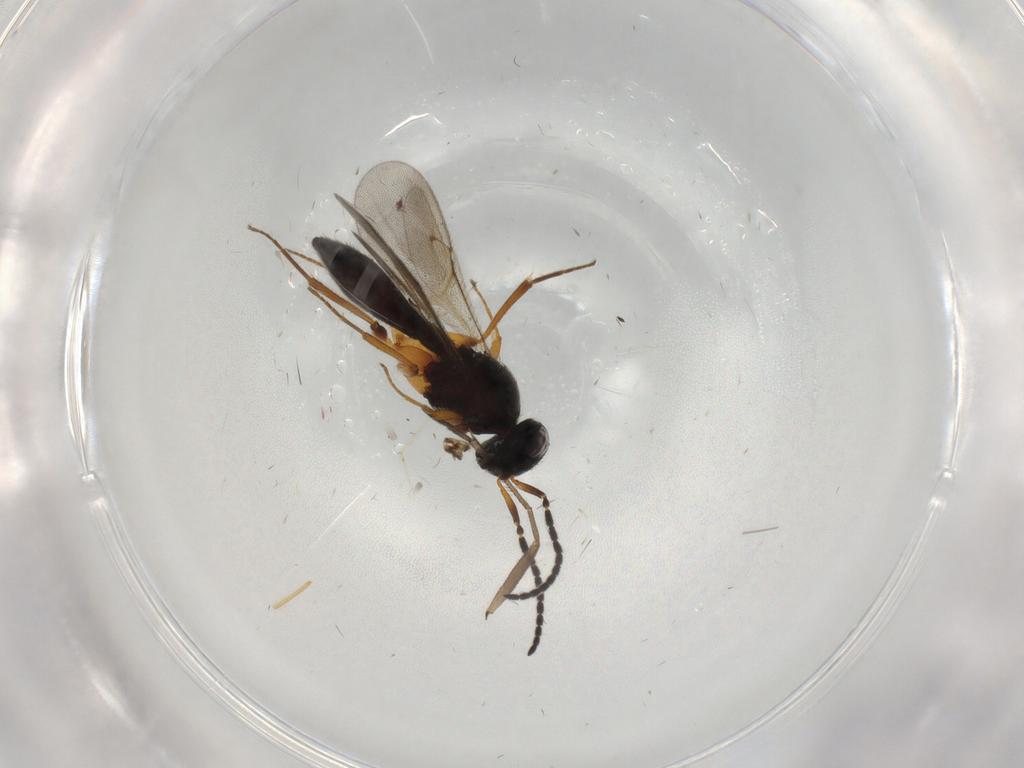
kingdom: Animalia
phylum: Arthropoda
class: Insecta
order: Hymenoptera
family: Scelionidae
